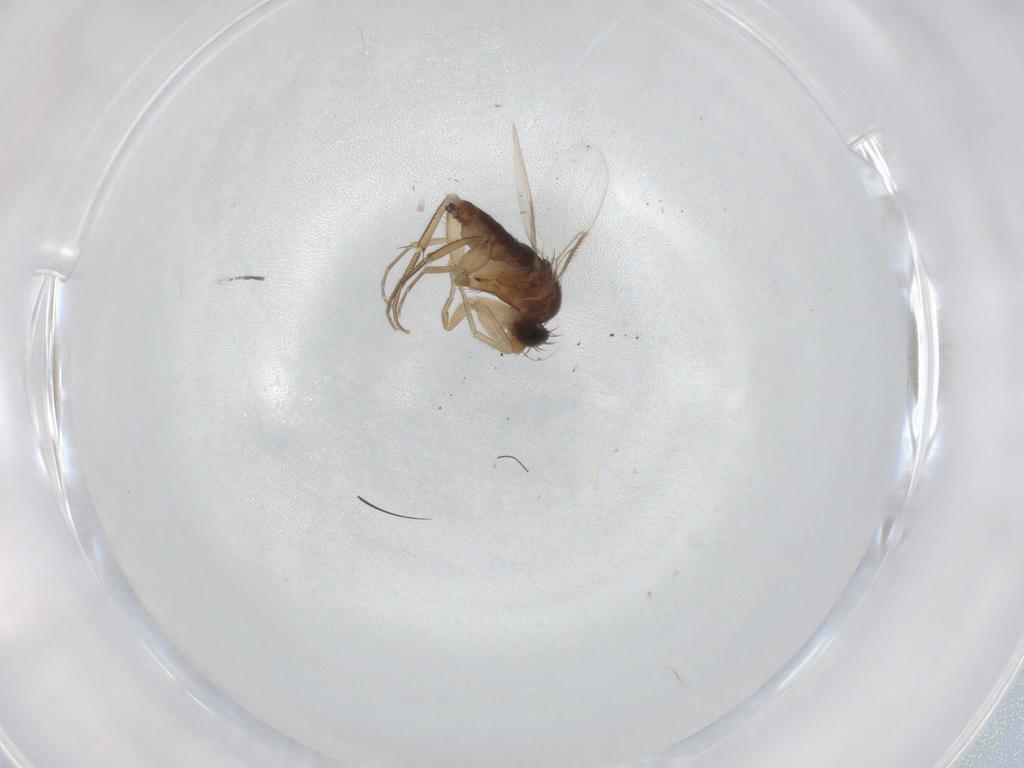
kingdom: Animalia
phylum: Arthropoda
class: Insecta
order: Diptera
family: Phoridae
